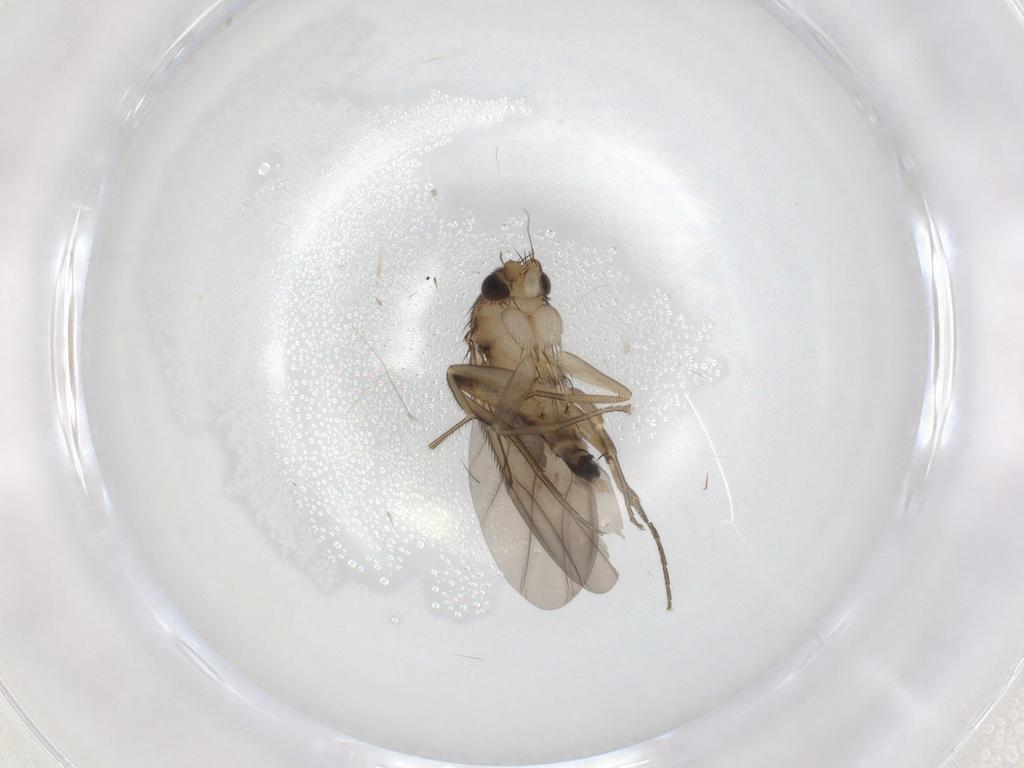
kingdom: Animalia
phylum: Arthropoda
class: Insecta
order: Diptera
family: Phoridae
